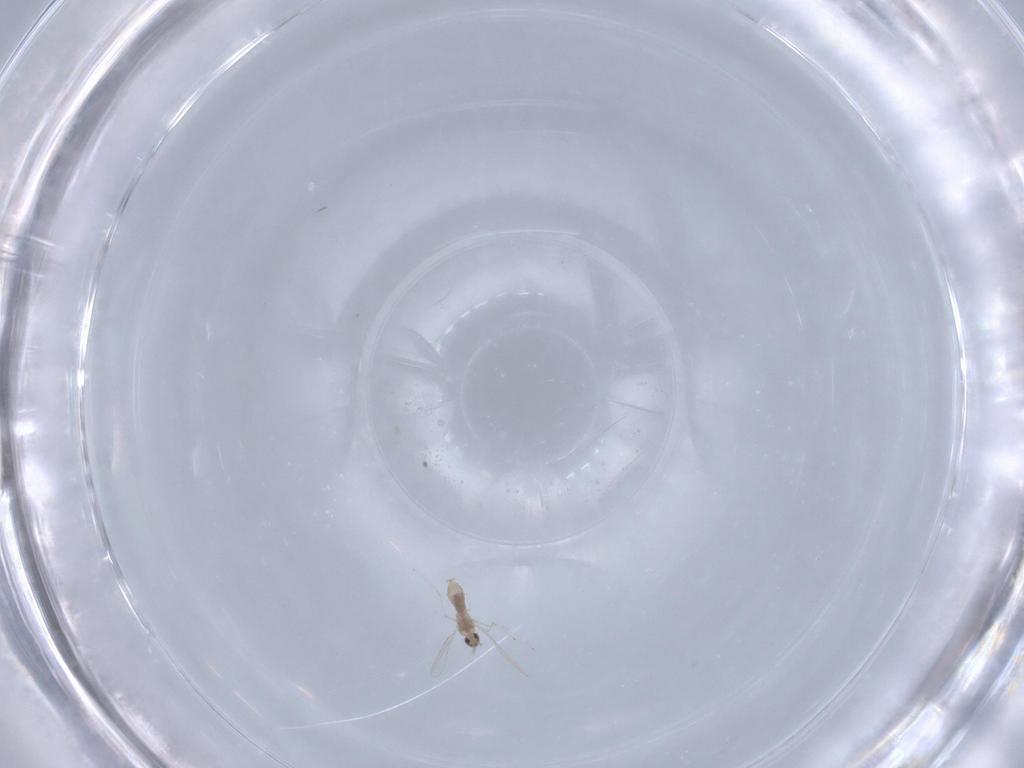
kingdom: Animalia
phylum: Arthropoda
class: Insecta
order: Diptera
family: Cecidomyiidae
